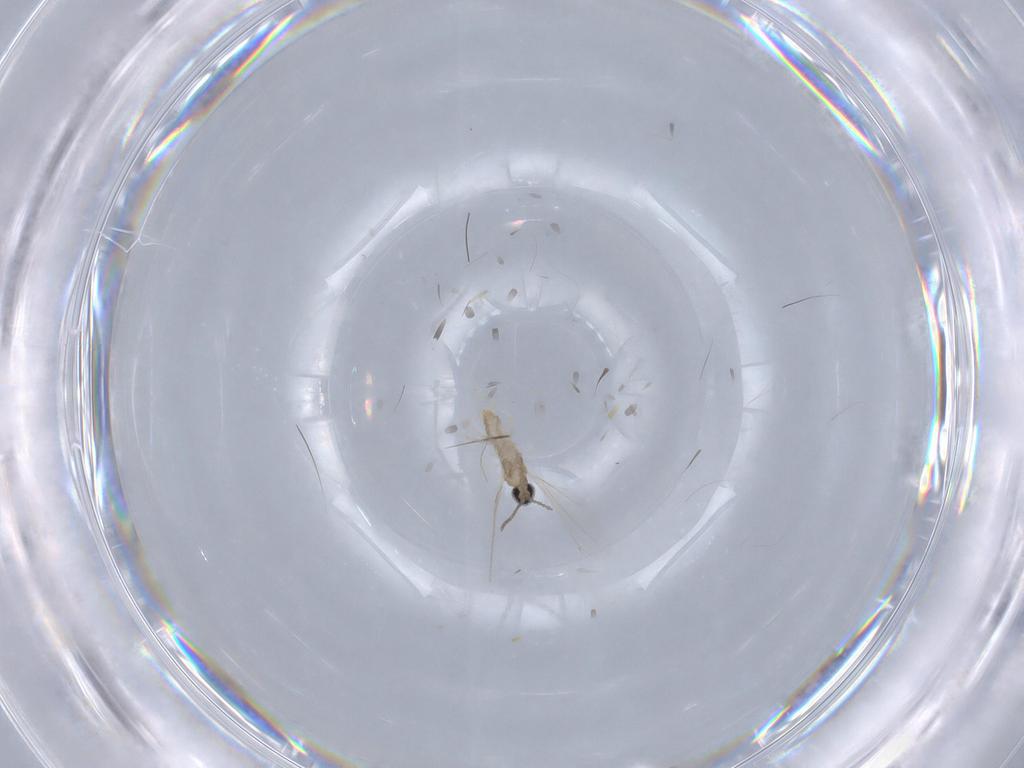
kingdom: Animalia
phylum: Arthropoda
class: Insecta
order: Diptera
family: Cecidomyiidae
